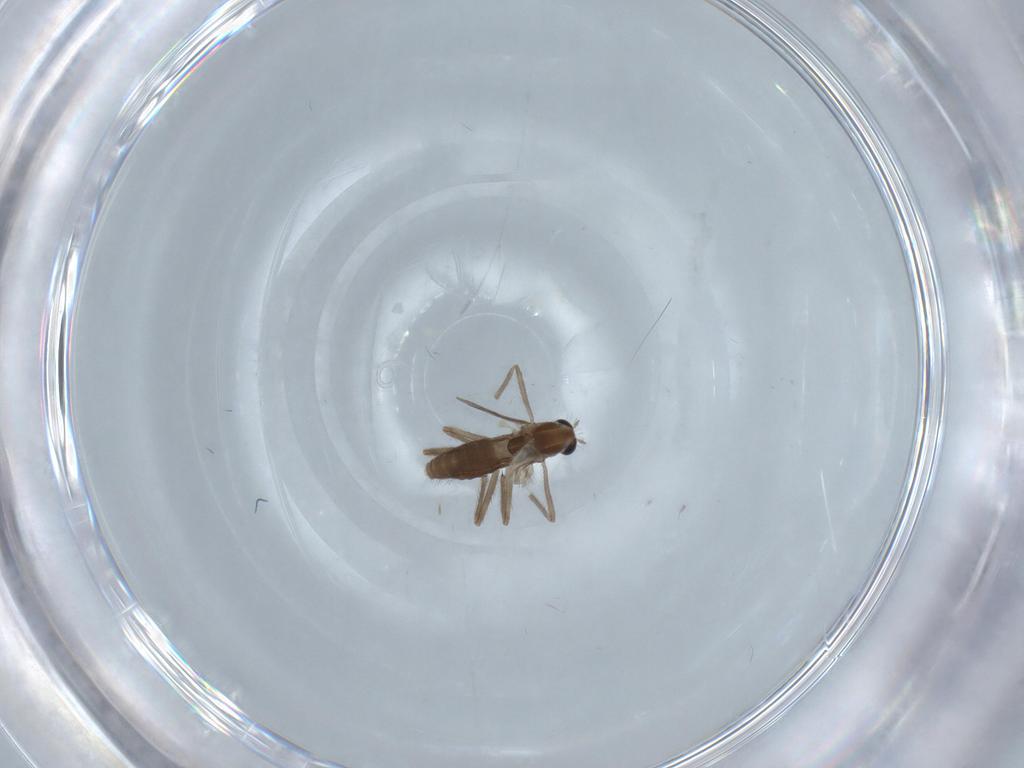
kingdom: Animalia
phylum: Arthropoda
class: Insecta
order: Diptera
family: Chironomidae
